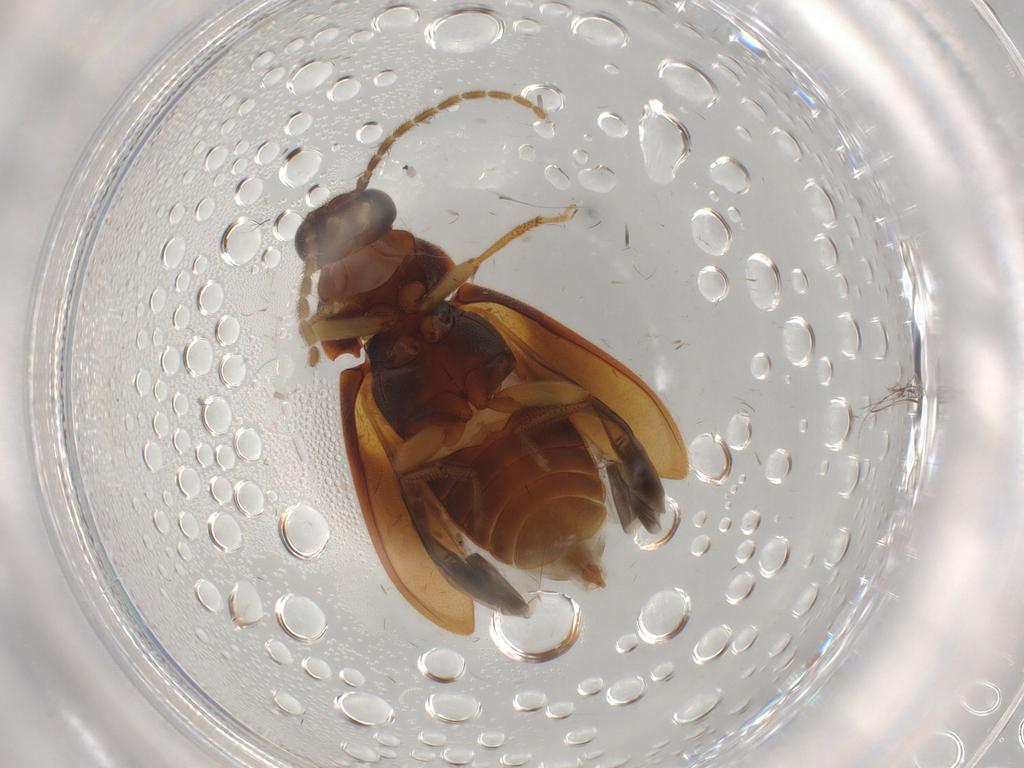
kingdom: Animalia
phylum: Arthropoda
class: Insecta
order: Coleoptera
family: Ptilodactylidae
